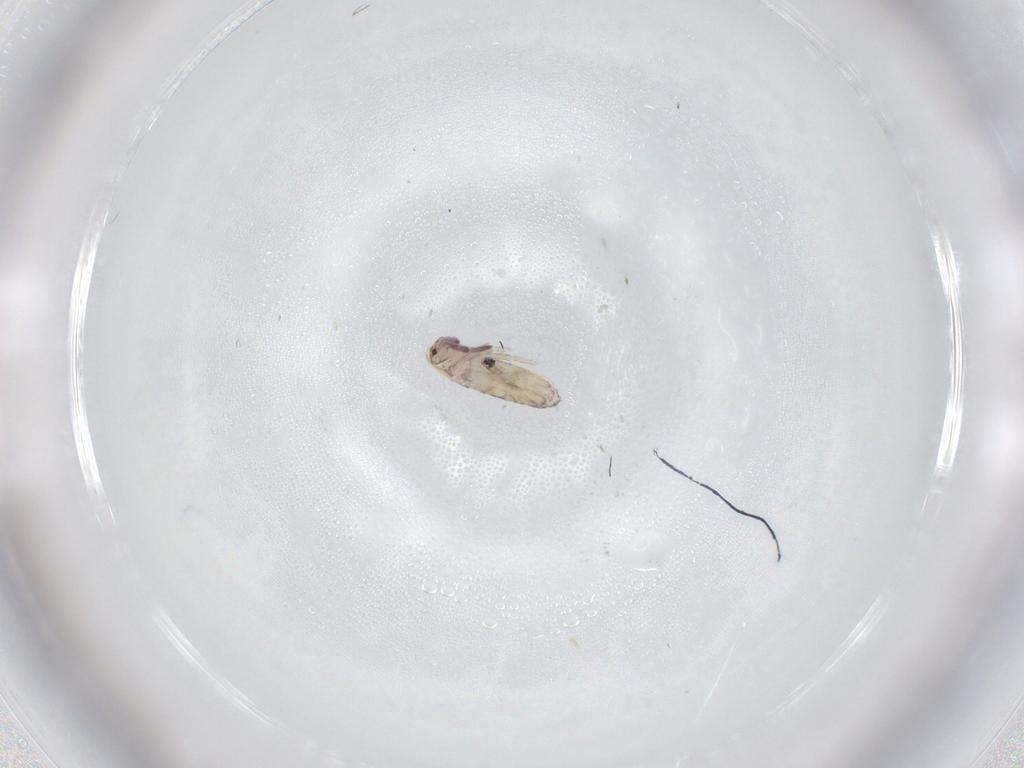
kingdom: Animalia
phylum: Arthropoda
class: Collembola
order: Entomobryomorpha
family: Entomobryidae
